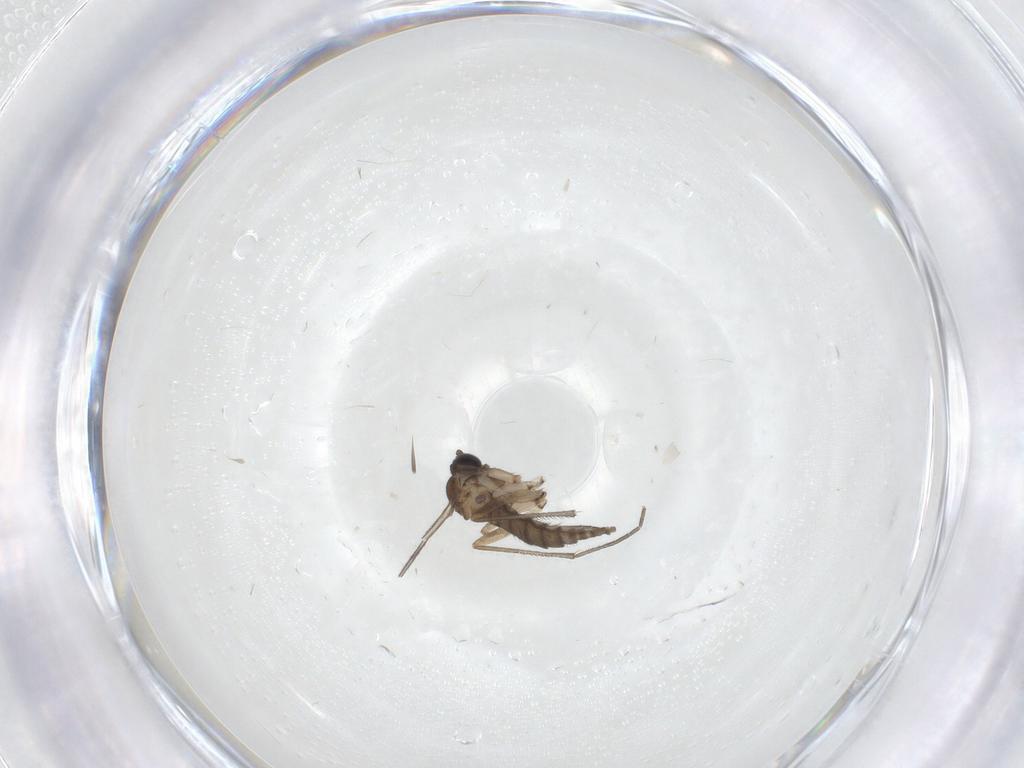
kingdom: Animalia
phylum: Arthropoda
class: Insecta
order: Diptera
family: Sciaridae
